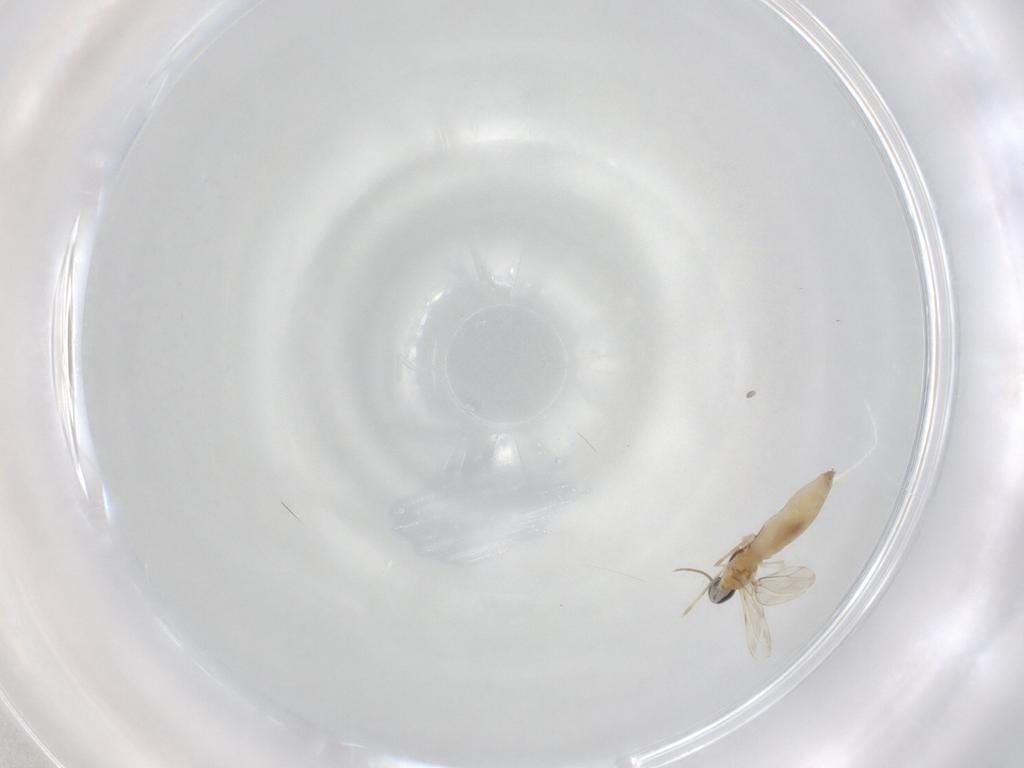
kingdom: Animalia
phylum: Arthropoda
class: Insecta
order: Diptera
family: Cecidomyiidae
